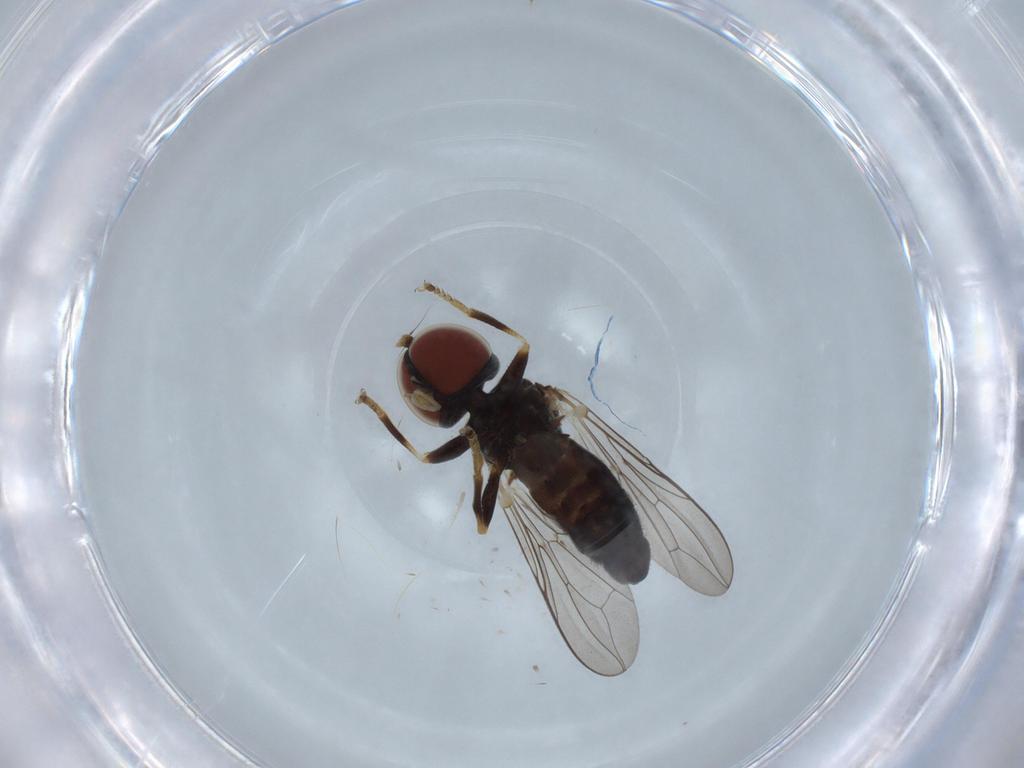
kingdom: Animalia
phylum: Arthropoda
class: Insecta
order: Diptera
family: Pipunculidae
